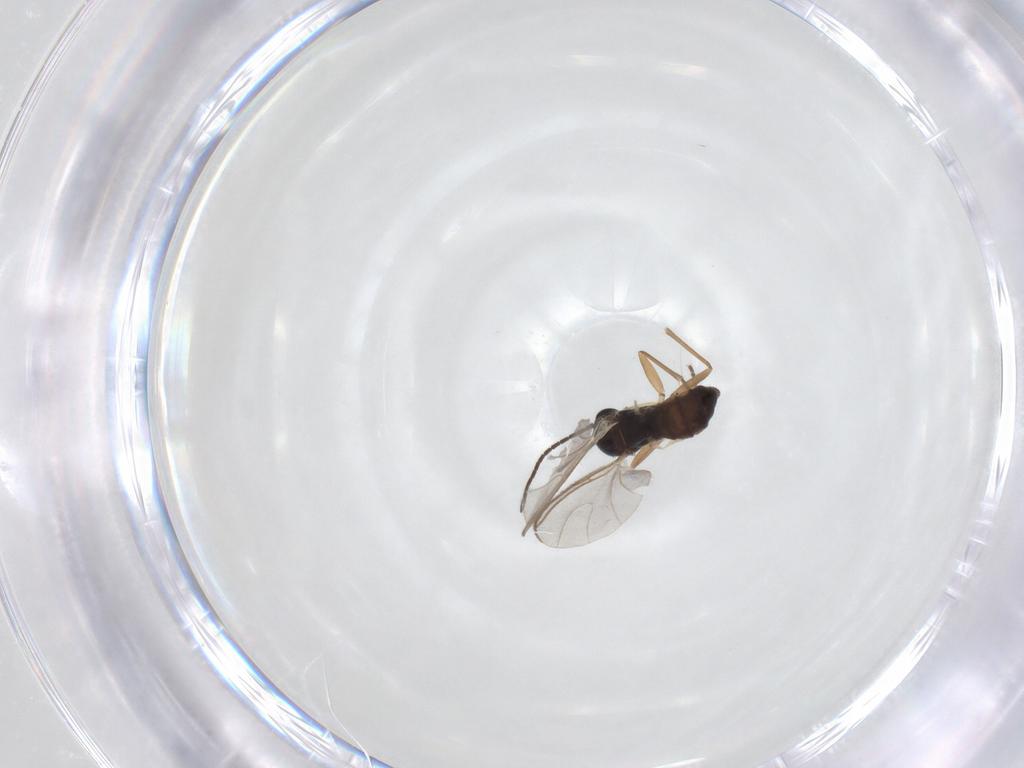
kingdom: Animalia
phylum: Arthropoda
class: Insecta
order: Diptera
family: Sciaridae
